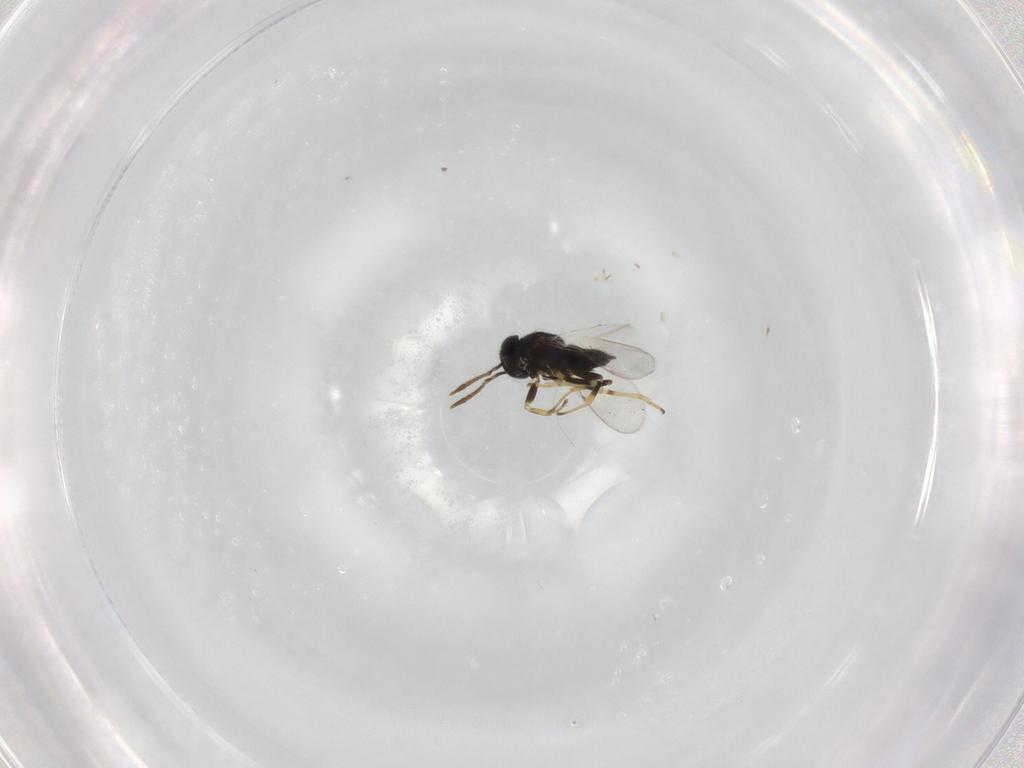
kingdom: Animalia
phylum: Arthropoda
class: Insecta
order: Hymenoptera
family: Encyrtidae
